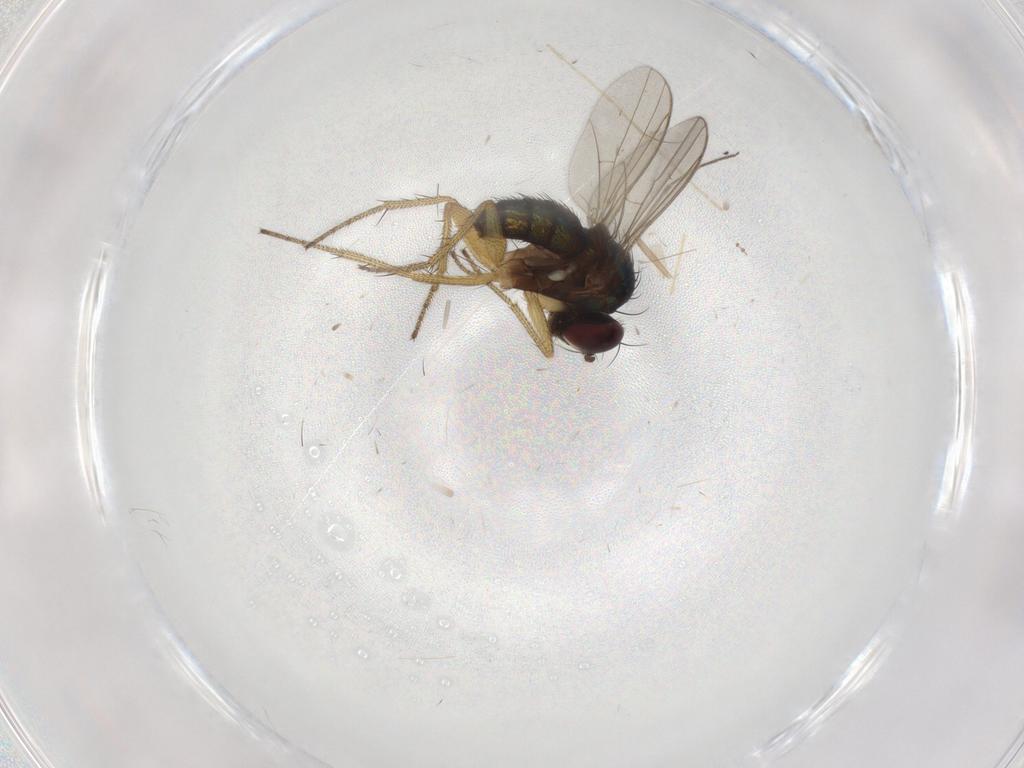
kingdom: Animalia
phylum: Arthropoda
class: Insecta
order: Diptera
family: Chironomidae
